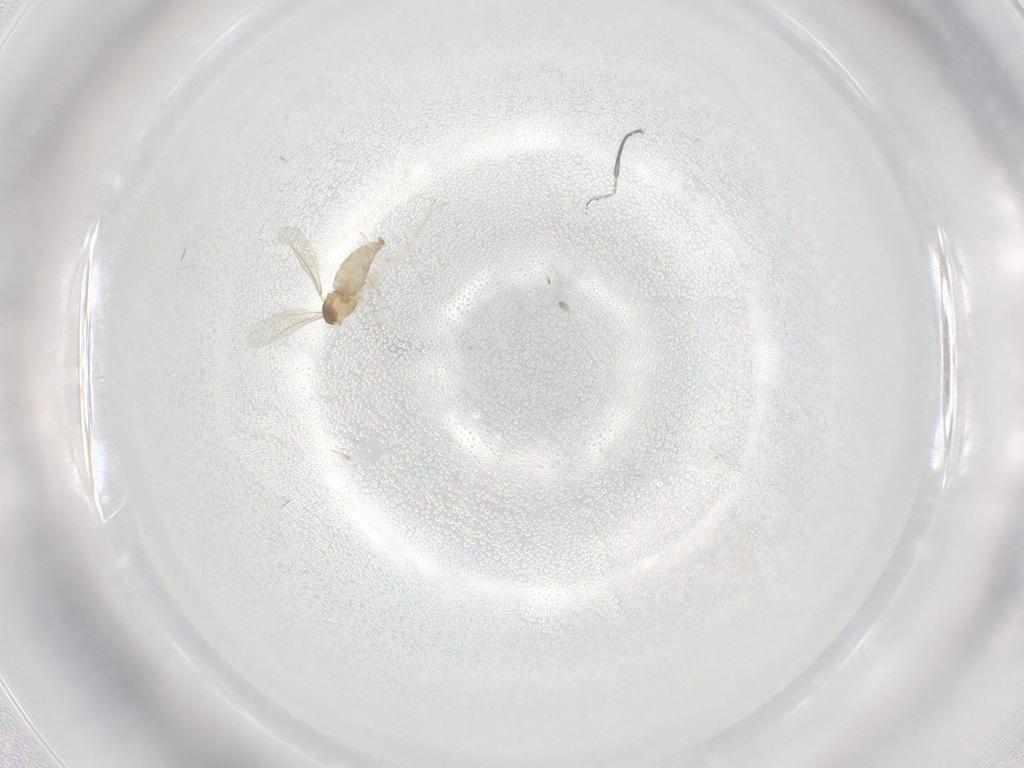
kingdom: Animalia
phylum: Arthropoda
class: Insecta
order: Diptera
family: Cecidomyiidae
